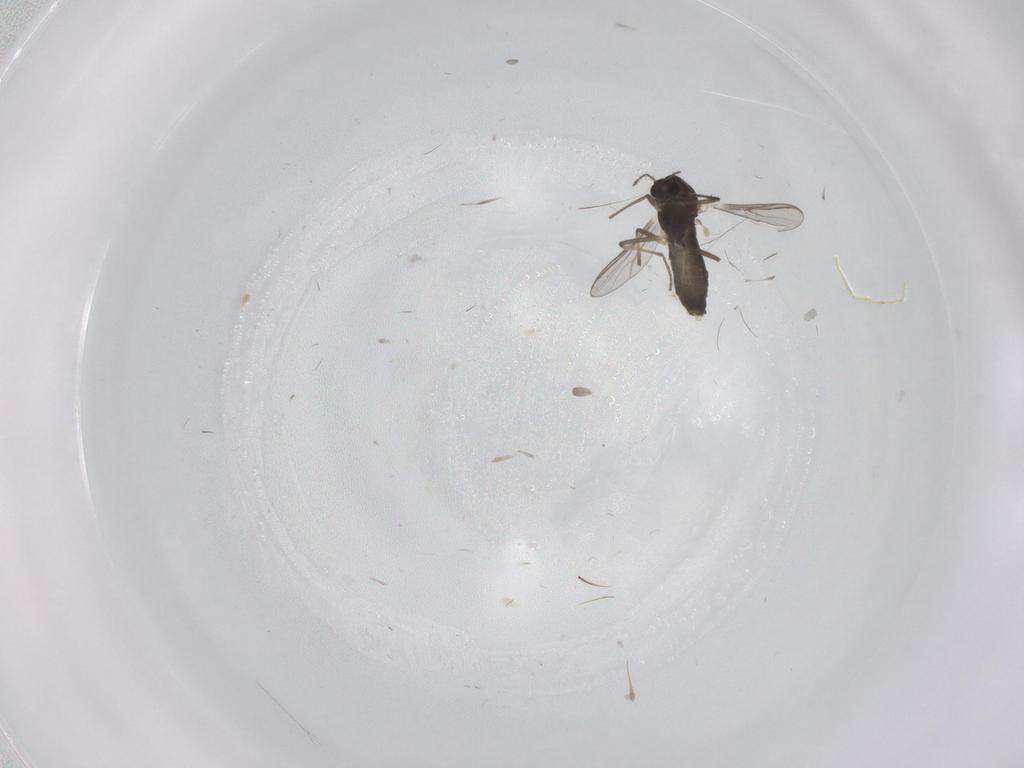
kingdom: Animalia
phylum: Arthropoda
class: Insecta
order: Diptera
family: Chironomidae
